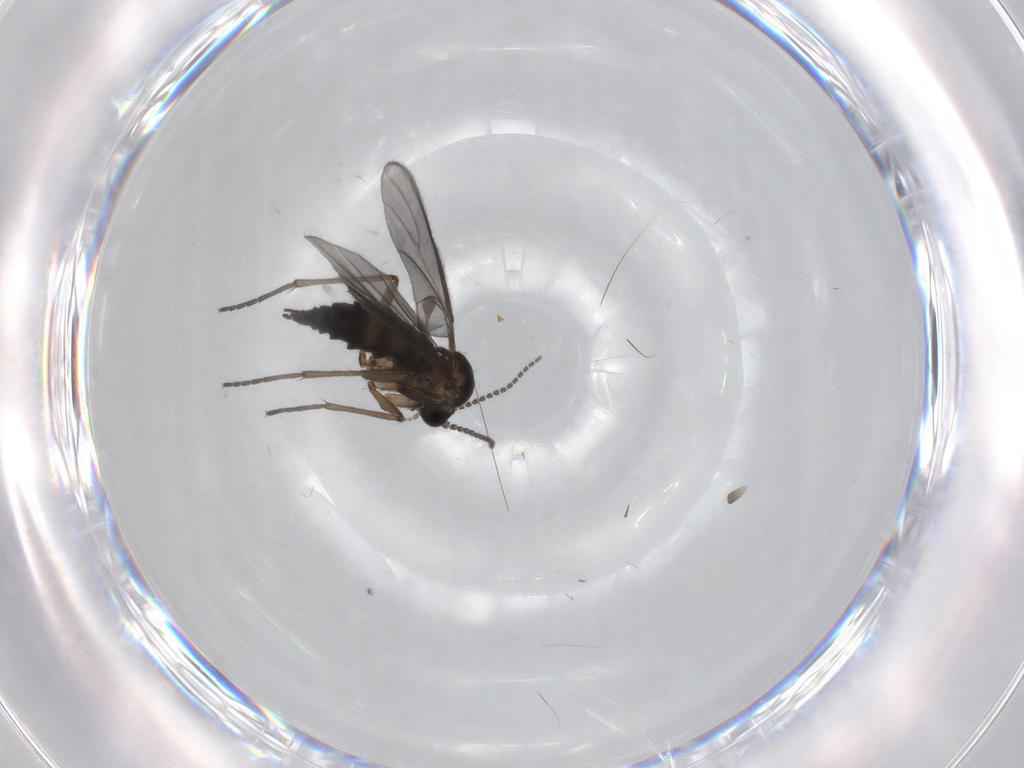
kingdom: Animalia
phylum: Arthropoda
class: Insecta
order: Diptera
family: Sciaridae
